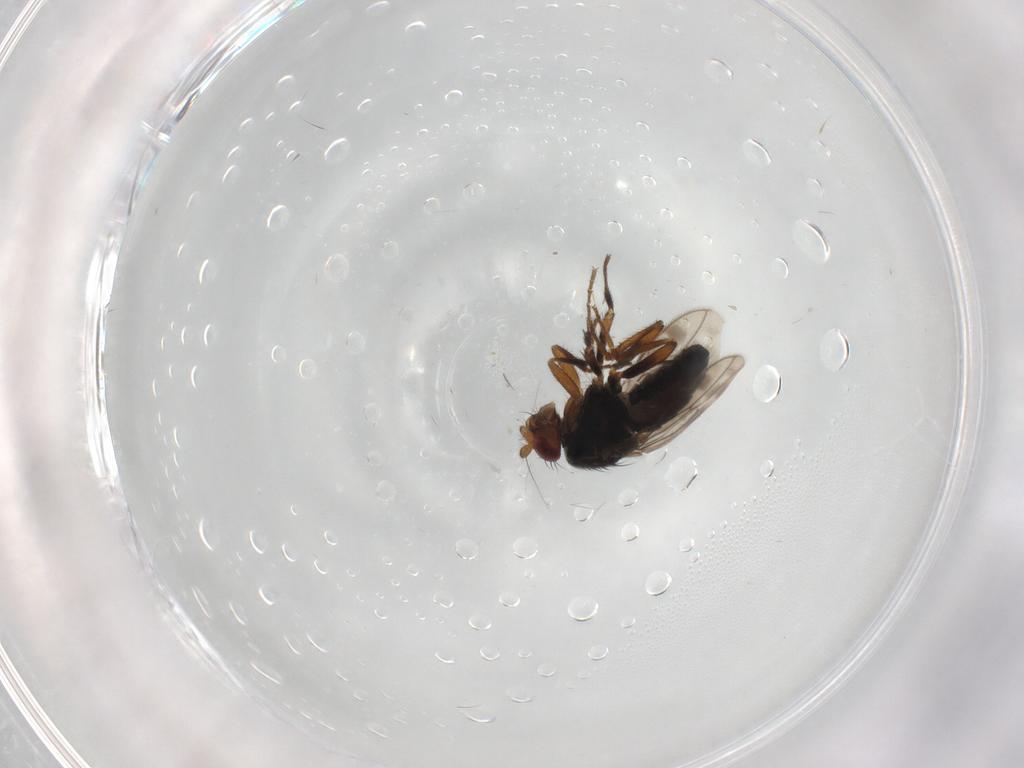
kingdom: Animalia
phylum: Arthropoda
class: Insecta
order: Diptera
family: Sphaeroceridae
